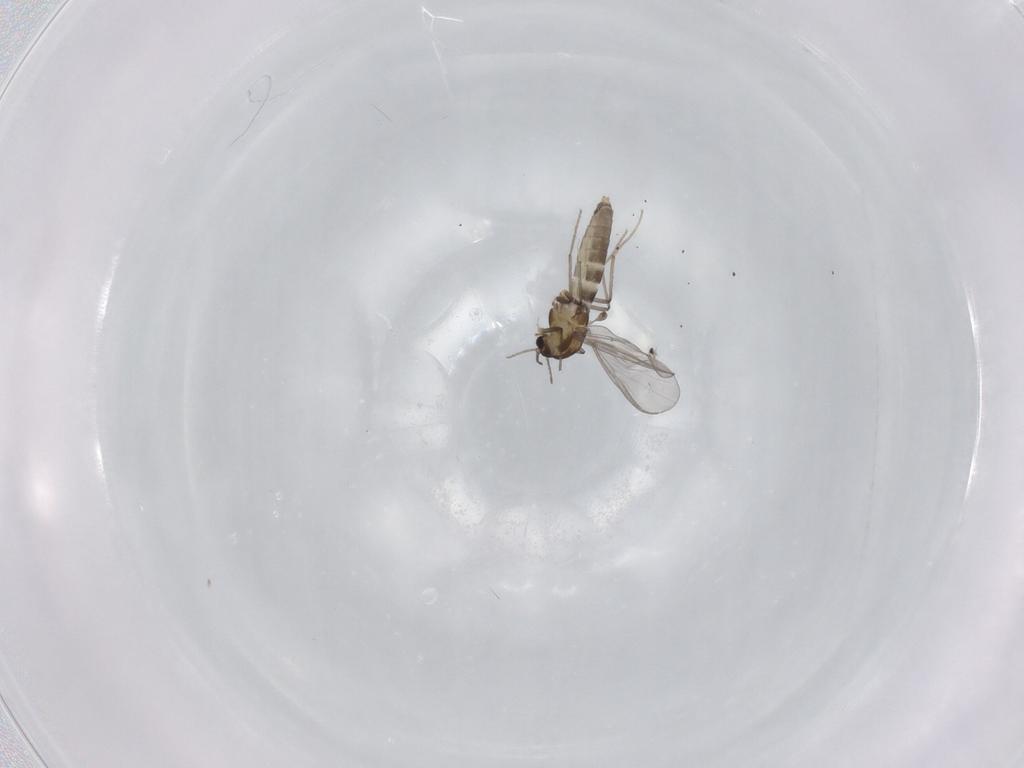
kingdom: Animalia
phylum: Arthropoda
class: Insecta
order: Diptera
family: Chironomidae
